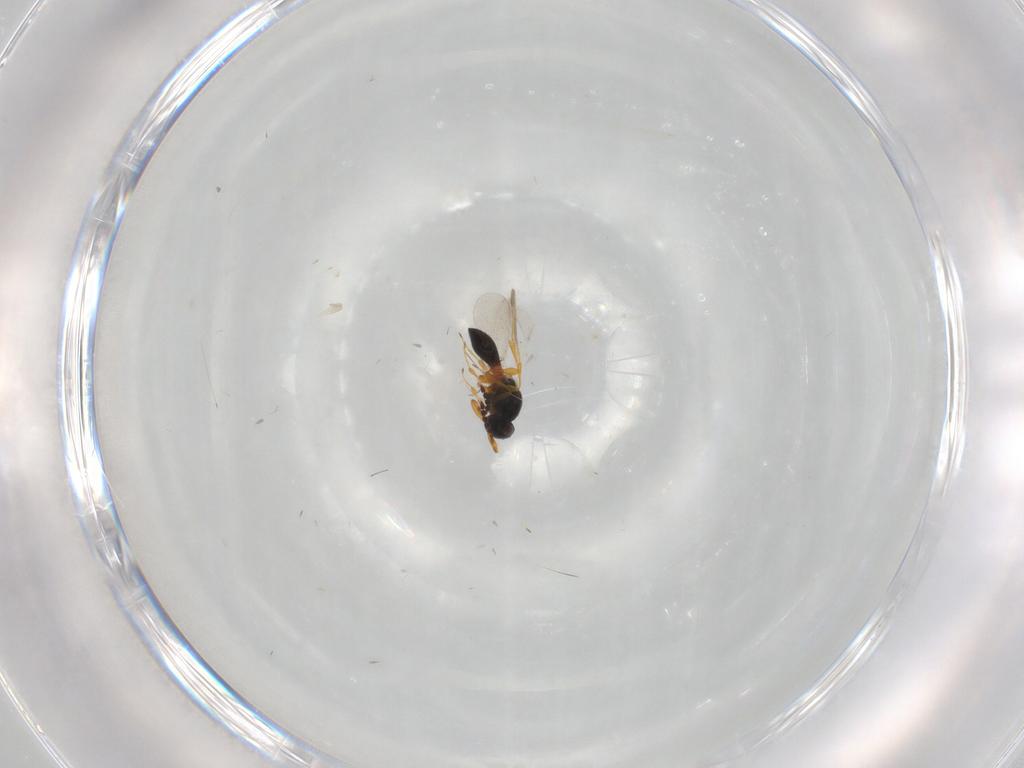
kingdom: Animalia
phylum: Arthropoda
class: Insecta
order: Hymenoptera
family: Platygastridae
